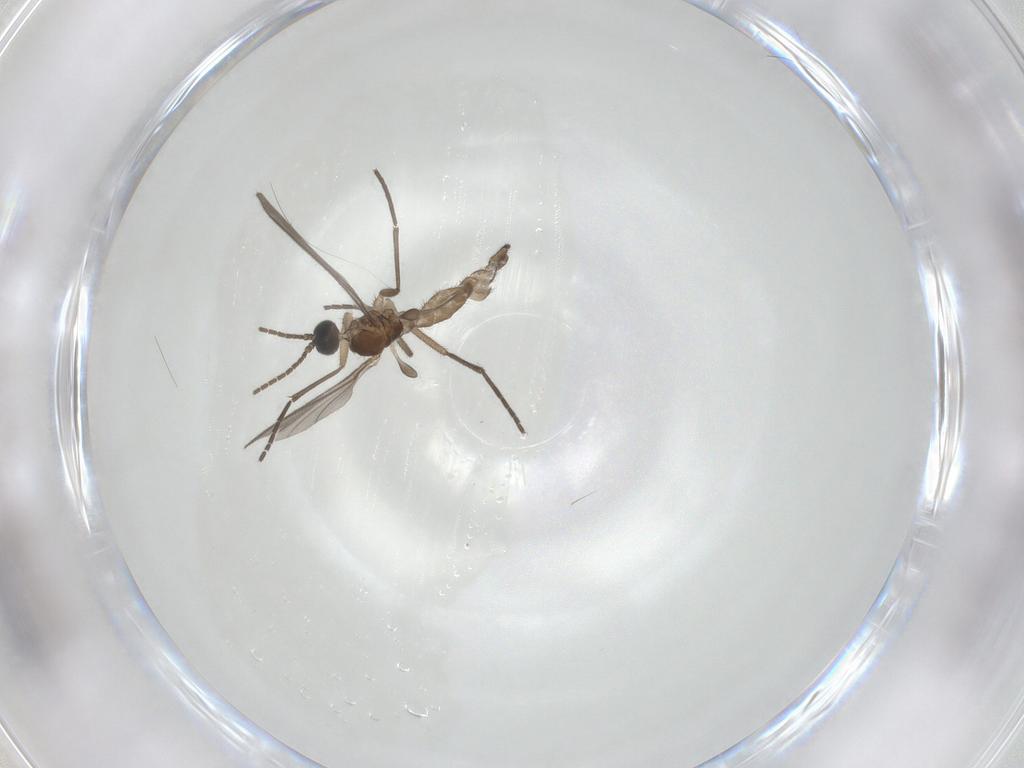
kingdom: Animalia
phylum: Arthropoda
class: Insecta
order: Diptera
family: Sciaridae
